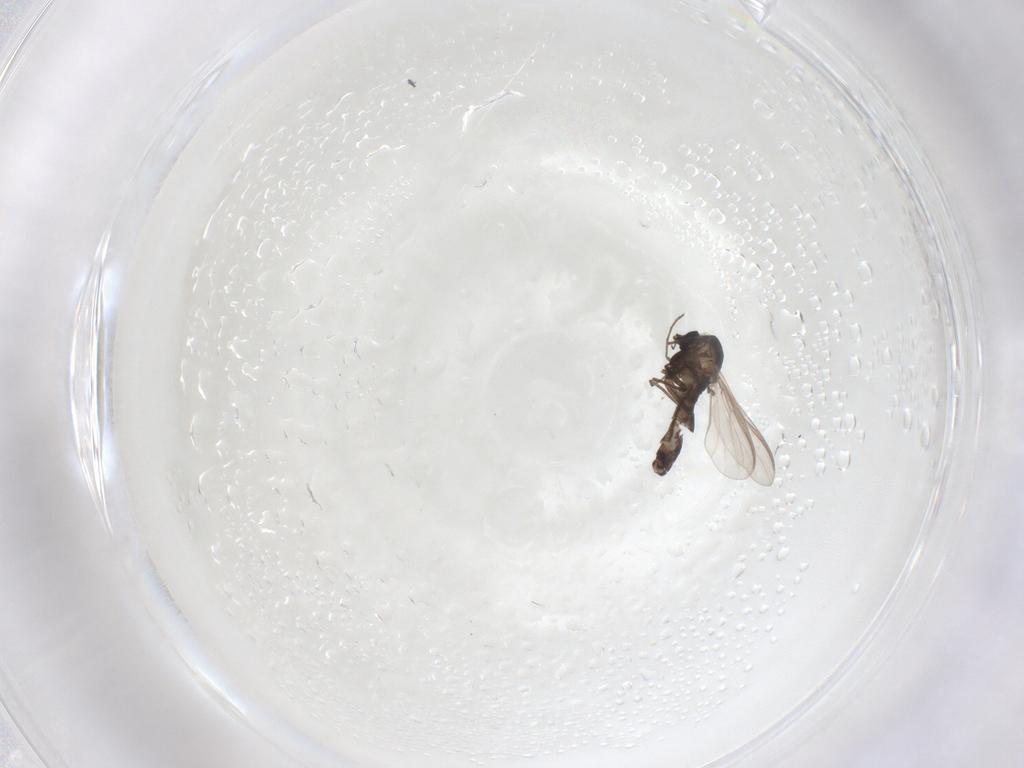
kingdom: Animalia
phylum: Arthropoda
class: Insecta
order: Diptera
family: Chironomidae
